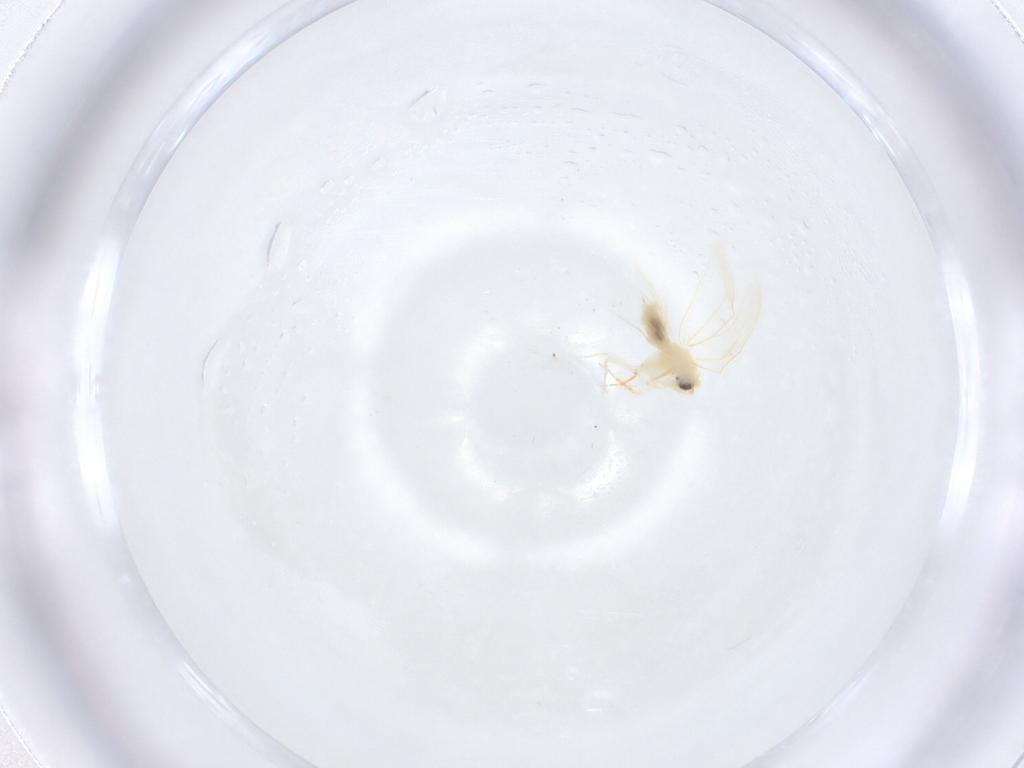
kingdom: Animalia
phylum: Arthropoda
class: Insecta
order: Hemiptera
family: Aleyrodidae
